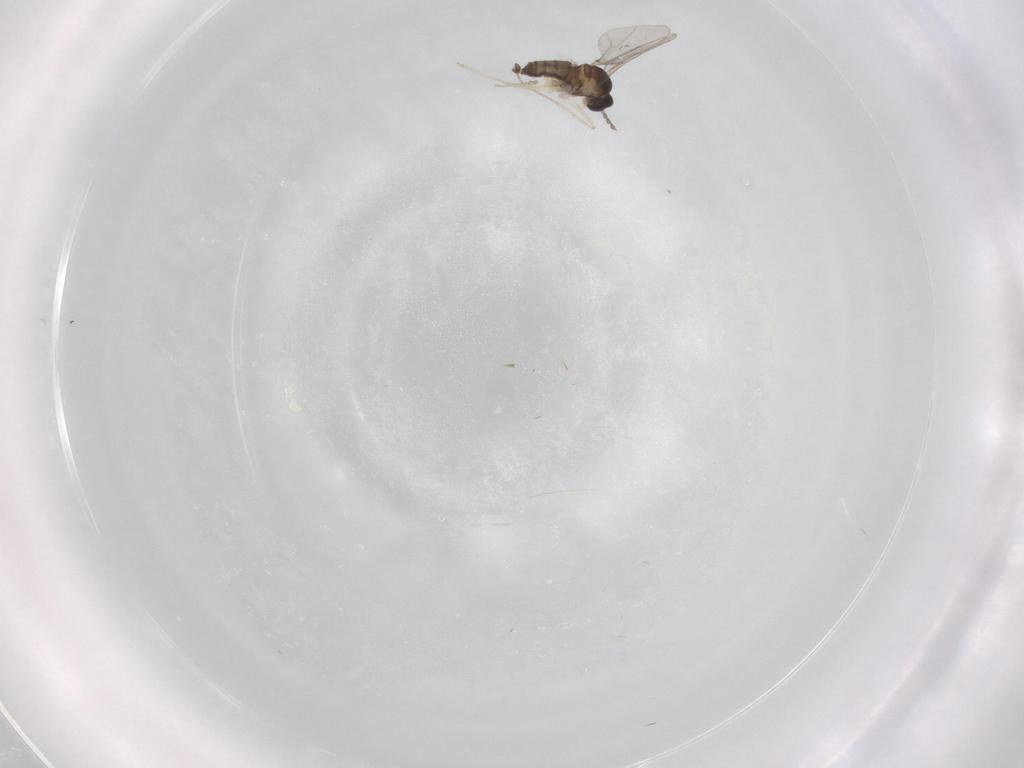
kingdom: Animalia
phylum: Arthropoda
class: Insecta
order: Diptera
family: Cecidomyiidae
